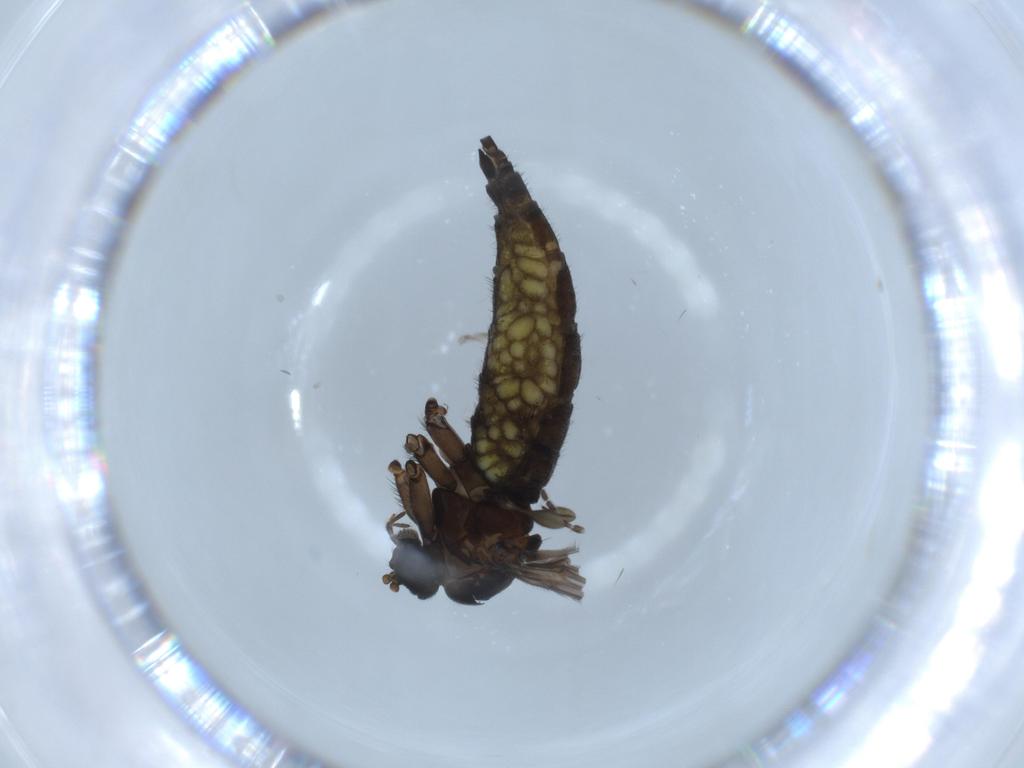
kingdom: Animalia
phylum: Arthropoda
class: Insecta
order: Diptera
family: Sciaridae
